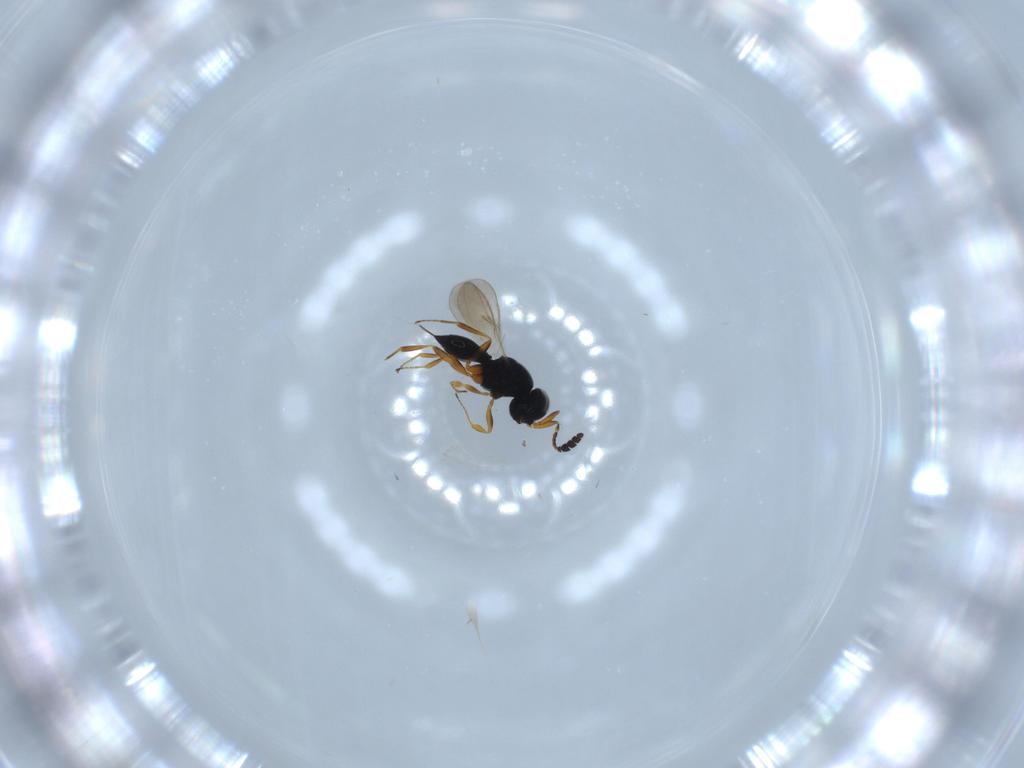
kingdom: Animalia
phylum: Arthropoda
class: Insecta
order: Hymenoptera
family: Scelionidae
